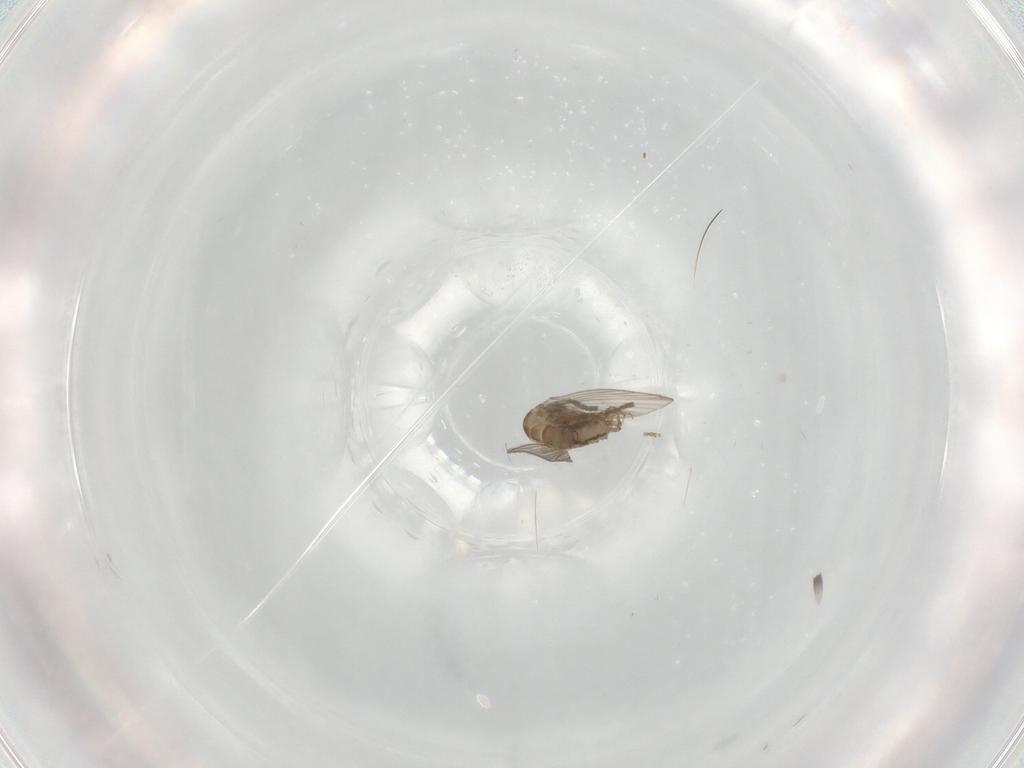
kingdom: Animalia
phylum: Arthropoda
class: Insecta
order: Diptera
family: Psychodidae
